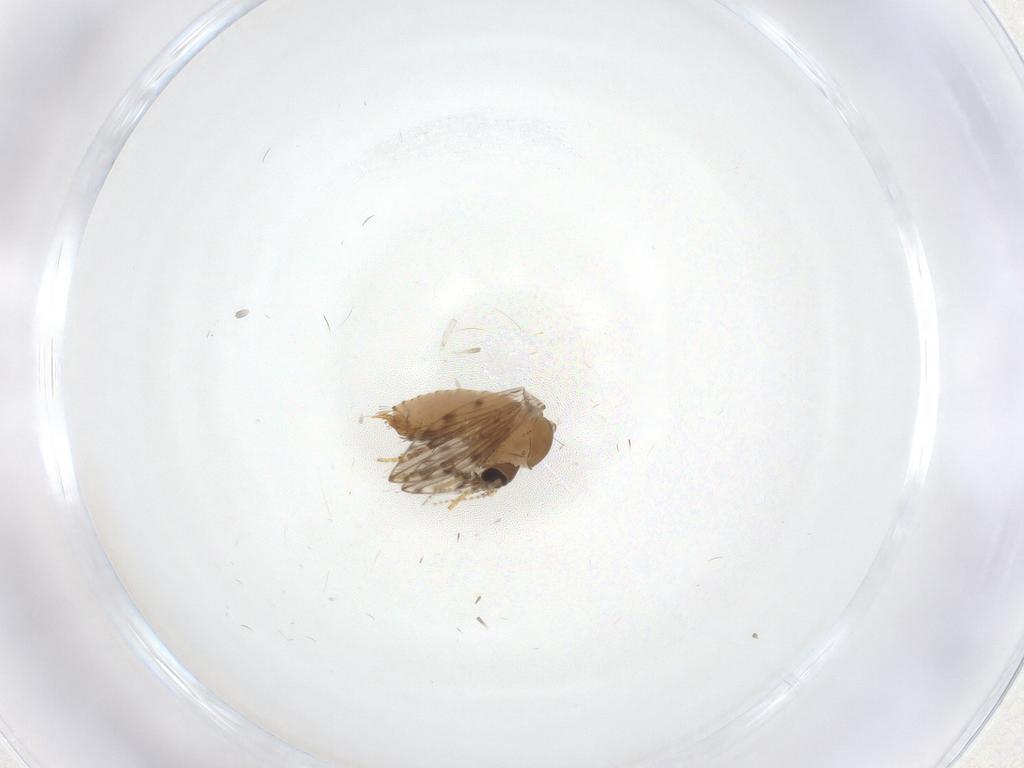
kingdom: Animalia
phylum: Arthropoda
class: Insecta
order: Diptera
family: Psychodidae
